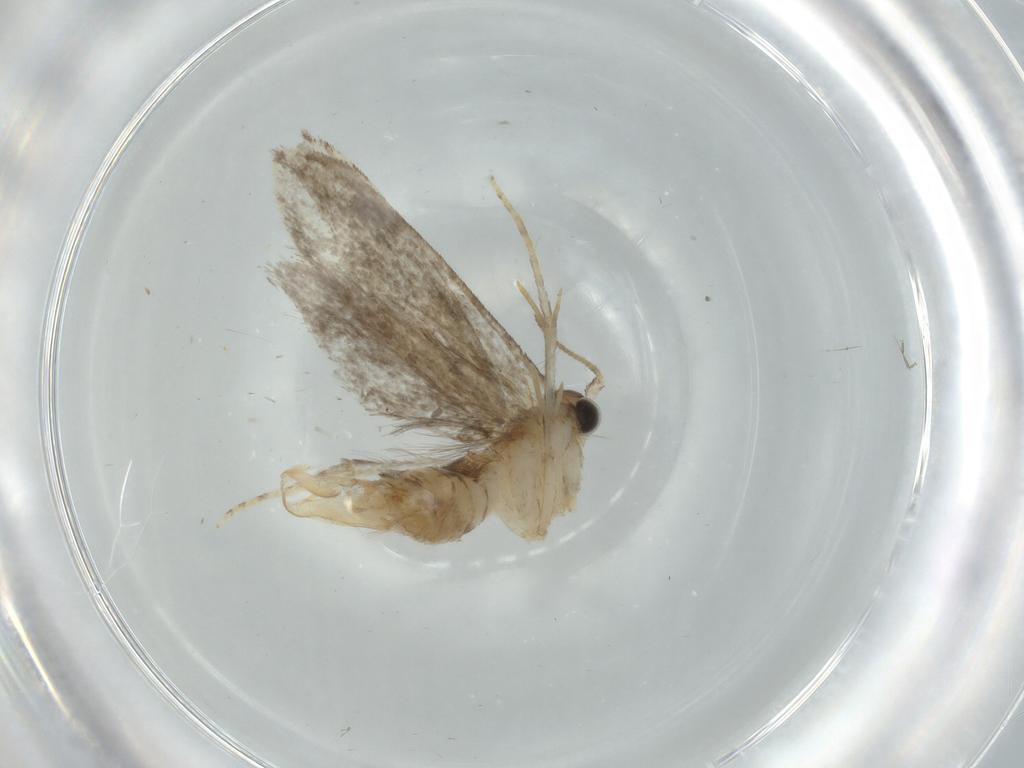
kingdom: Animalia
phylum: Arthropoda
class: Insecta
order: Lepidoptera
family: Tineidae
